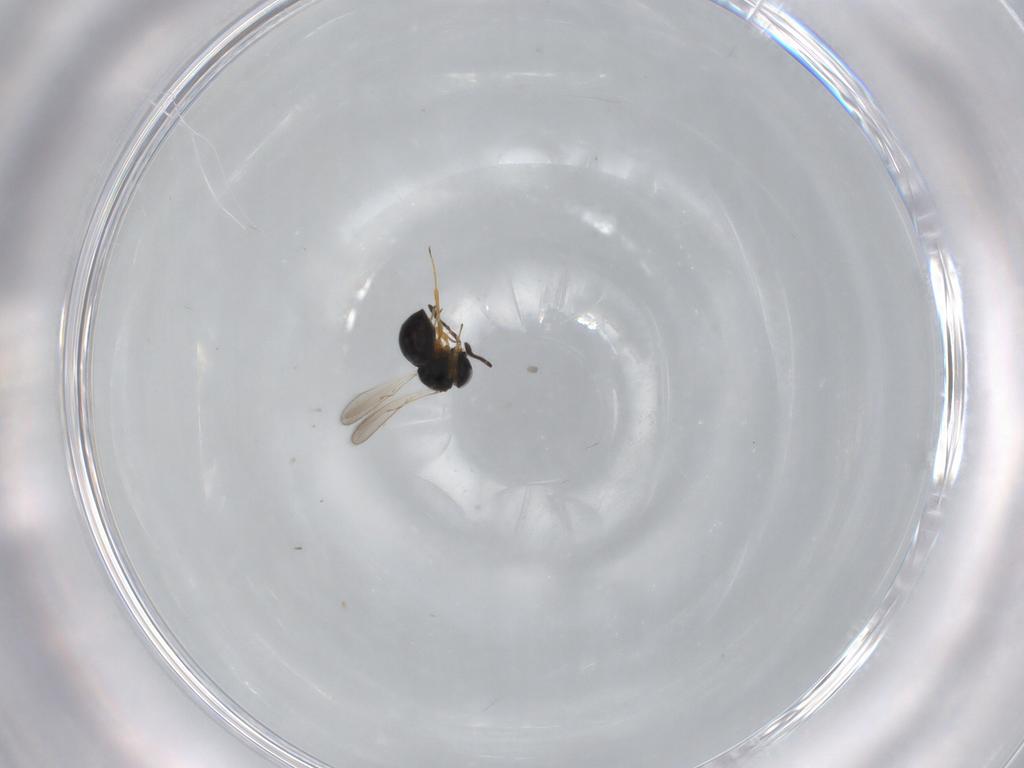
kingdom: Animalia
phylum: Arthropoda
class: Insecta
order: Hymenoptera
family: Scelionidae
